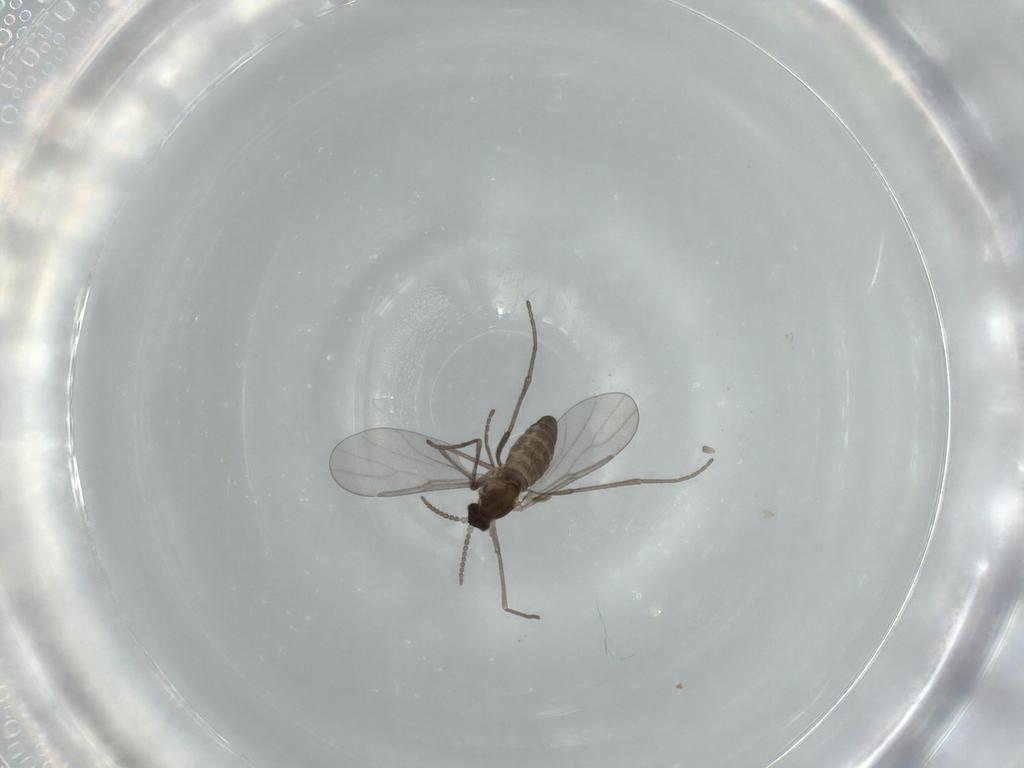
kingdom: Animalia
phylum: Arthropoda
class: Insecta
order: Diptera
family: Cecidomyiidae
